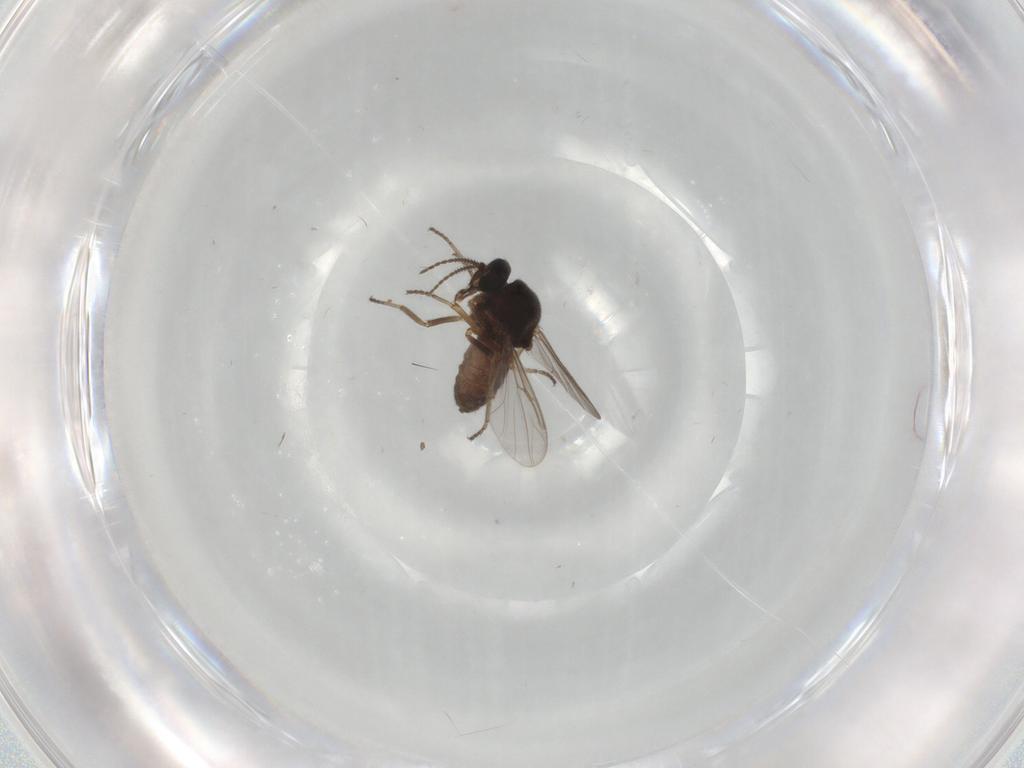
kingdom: Animalia
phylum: Arthropoda
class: Insecta
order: Diptera
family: Ceratopogonidae
